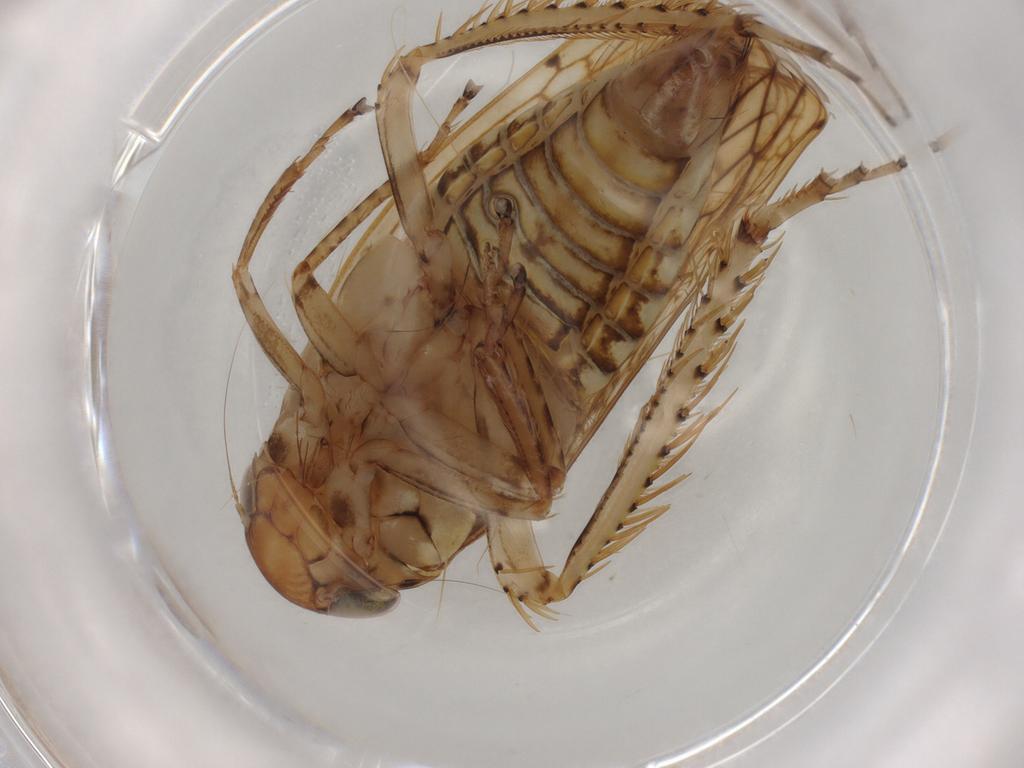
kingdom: Animalia
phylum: Arthropoda
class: Insecta
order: Hemiptera
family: Cicadellidae
